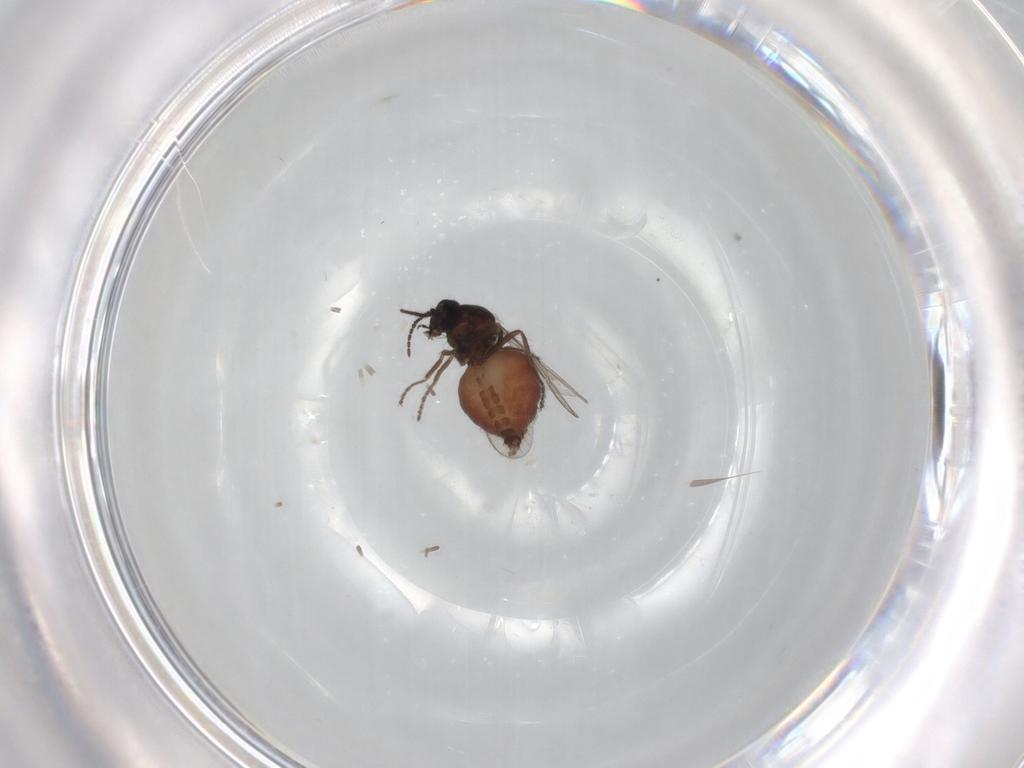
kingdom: Animalia
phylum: Arthropoda
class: Insecta
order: Diptera
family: Ceratopogonidae
